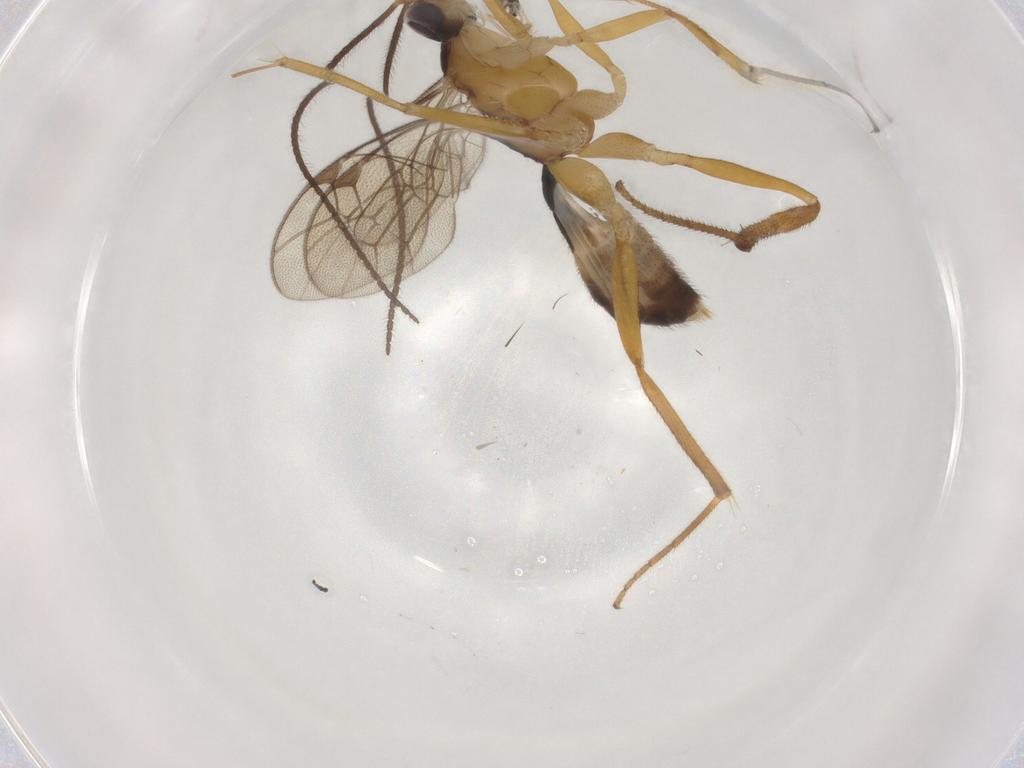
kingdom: Animalia
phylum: Arthropoda
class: Insecta
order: Hymenoptera
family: Ichneumonidae
